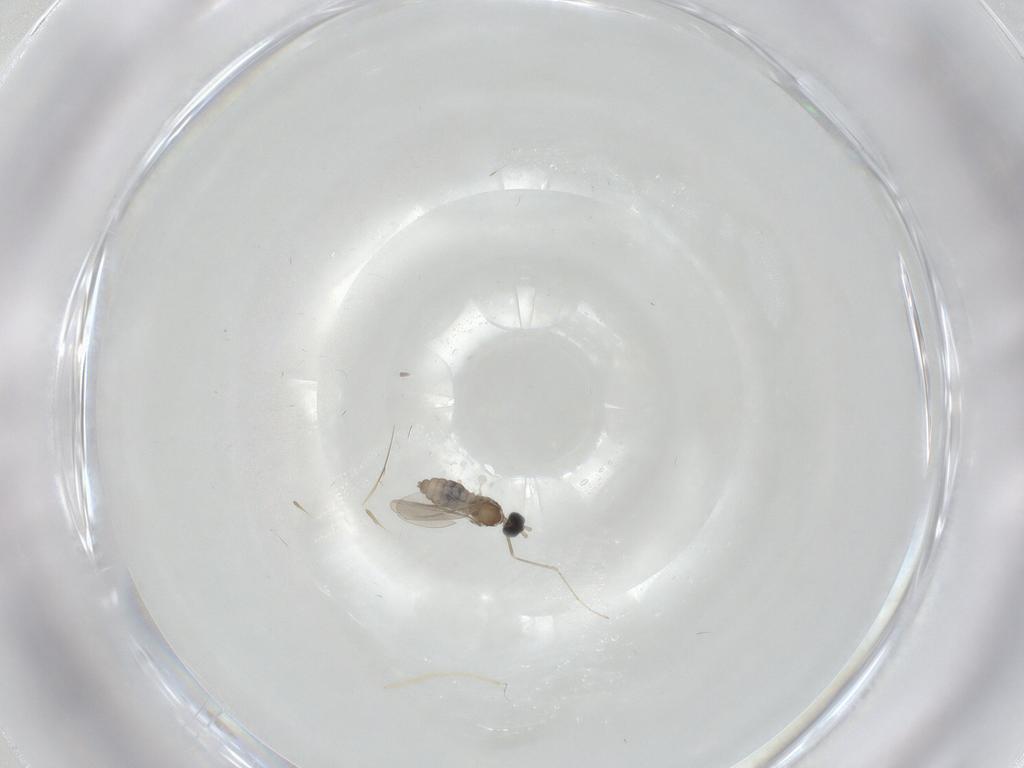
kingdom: Animalia
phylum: Arthropoda
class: Insecta
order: Diptera
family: Cecidomyiidae
